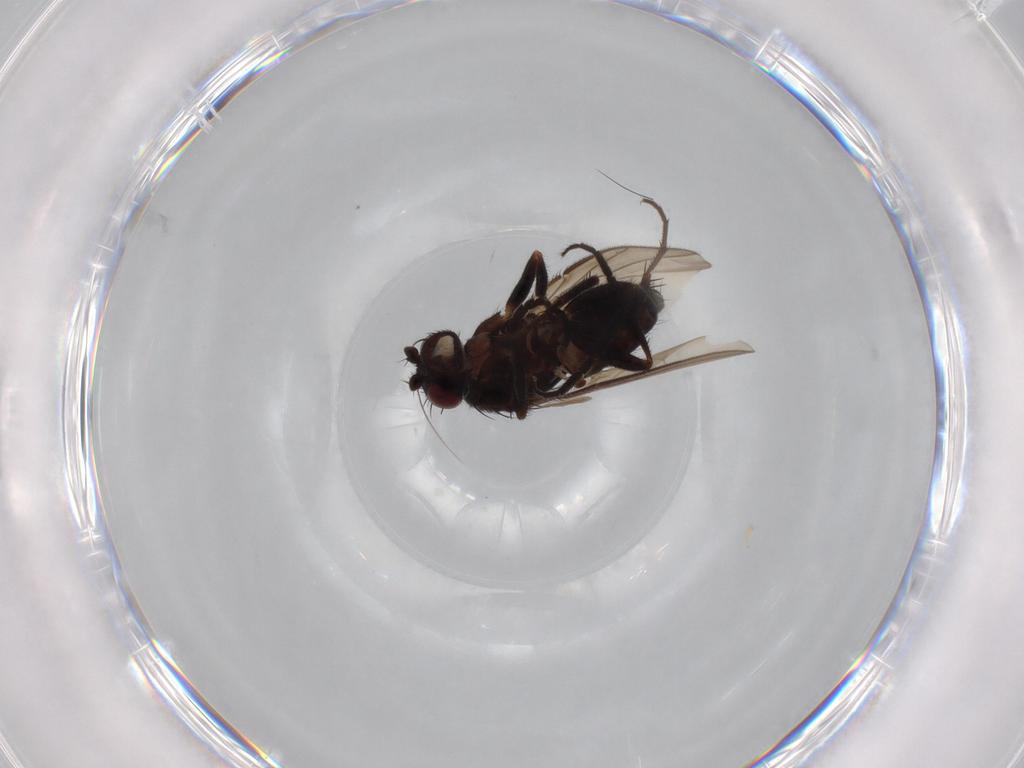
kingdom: Animalia
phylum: Arthropoda
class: Insecta
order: Diptera
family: Sphaeroceridae
